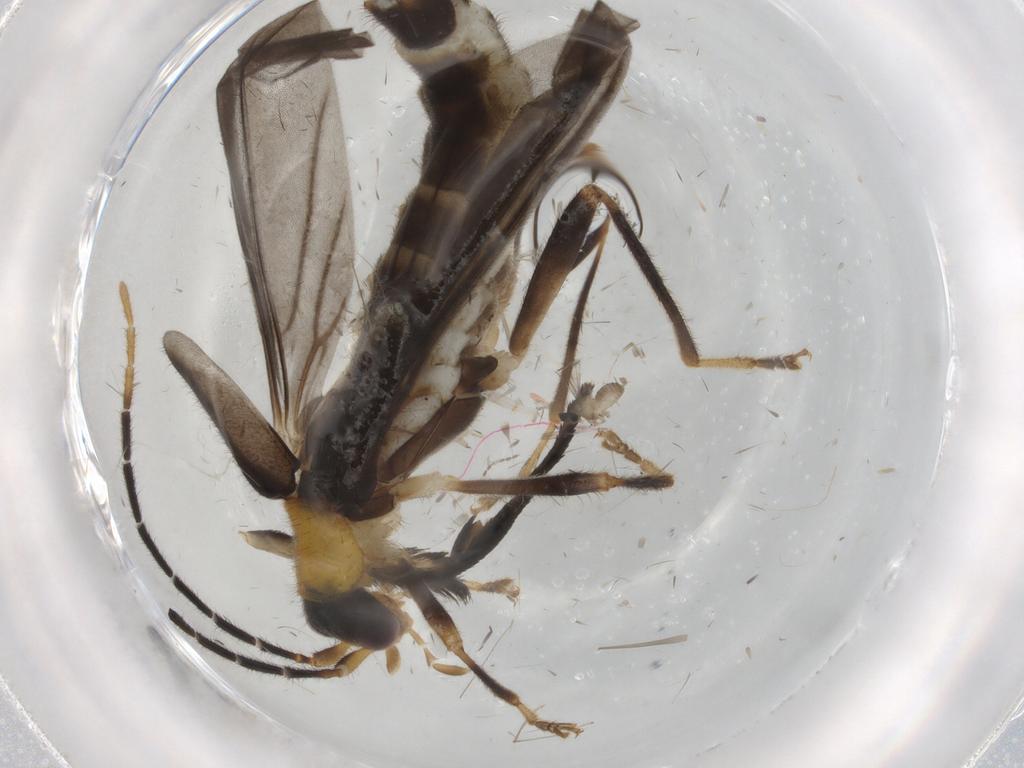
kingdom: Animalia
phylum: Arthropoda
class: Insecta
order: Coleoptera
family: Cantharidae
